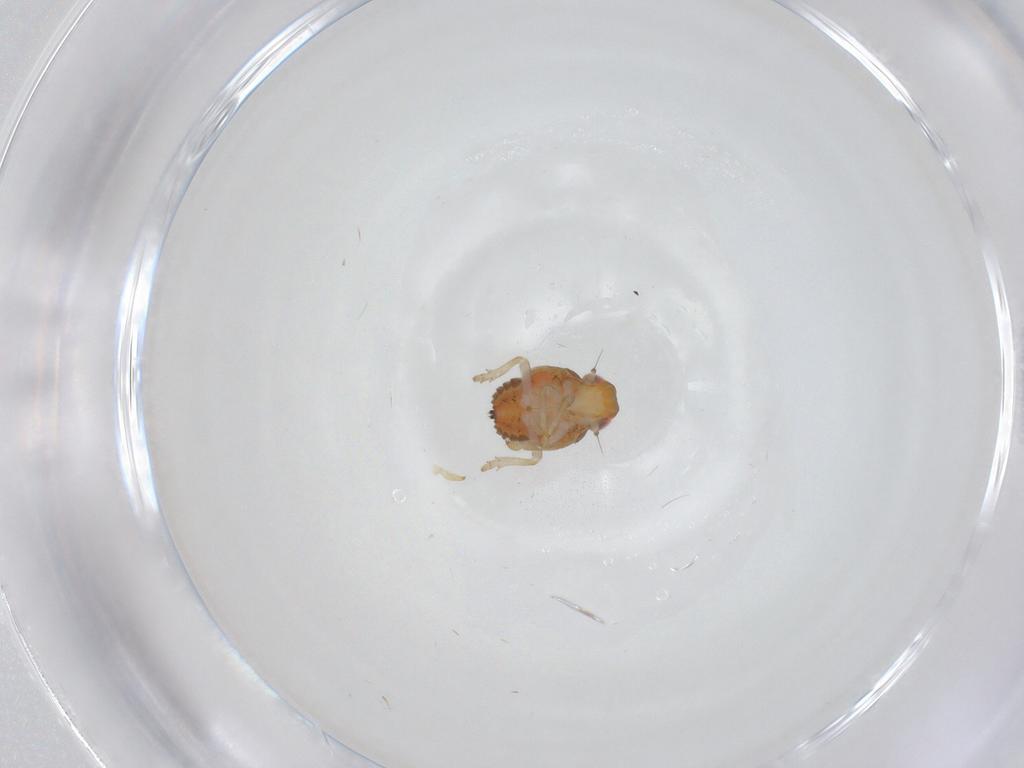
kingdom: Animalia
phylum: Arthropoda
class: Insecta
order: Hemiptera
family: Issidae
